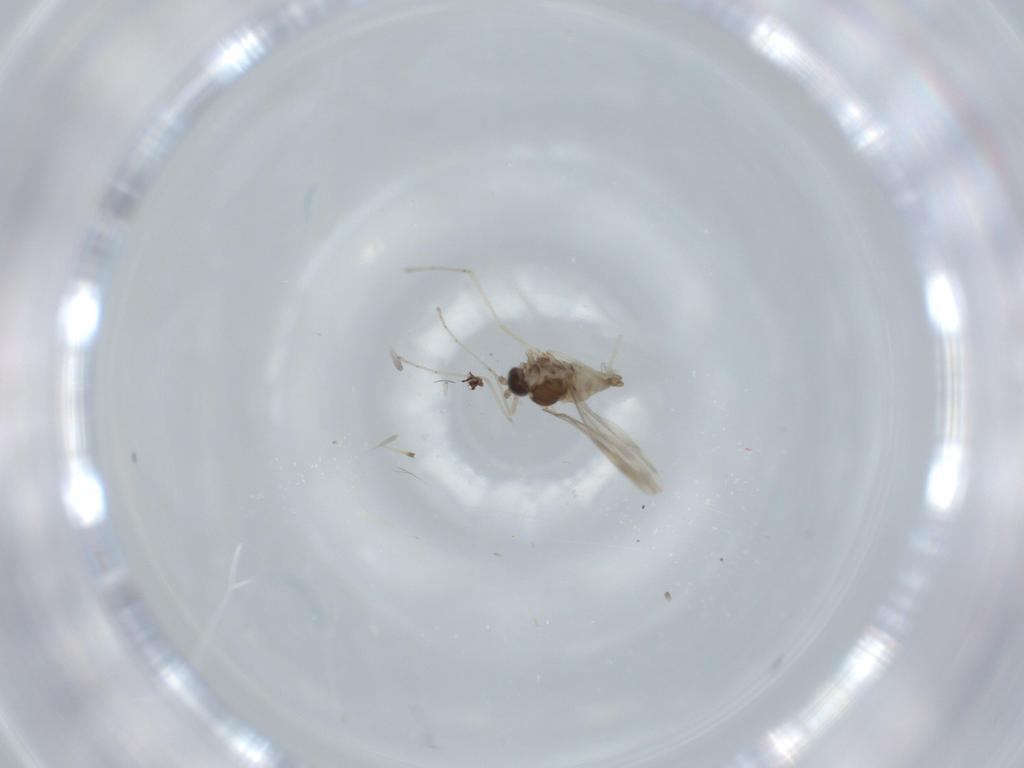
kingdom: Animalia
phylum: Arthropoda
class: Insecta
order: Diptera
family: Cecidomyiidae
